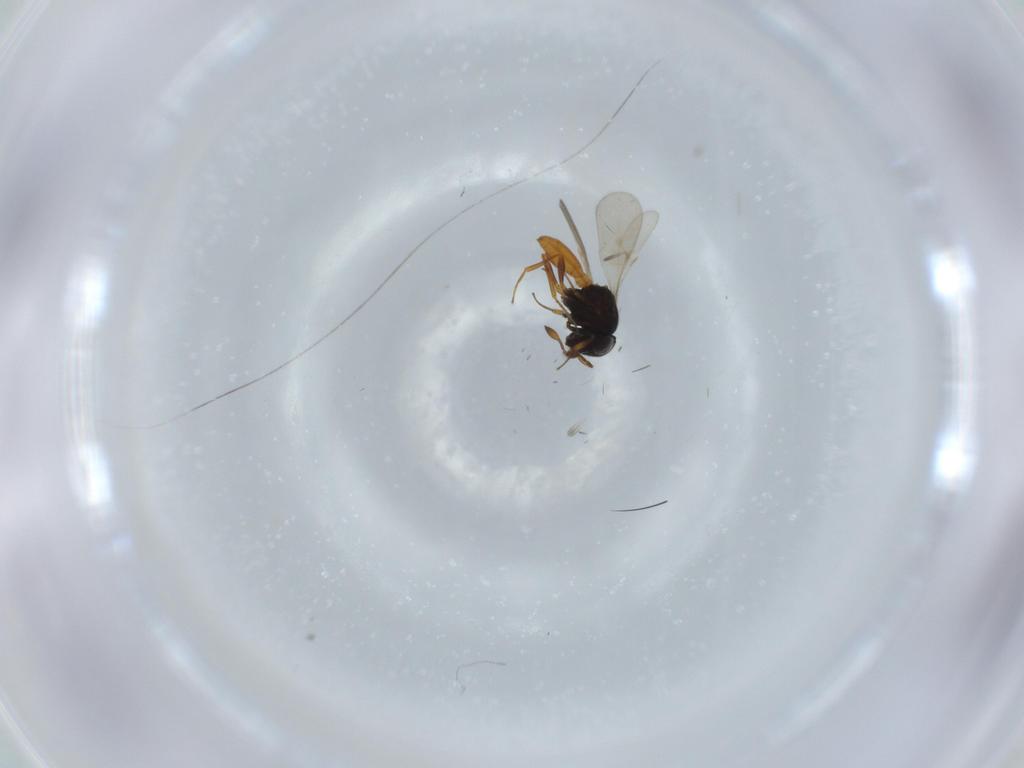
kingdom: Animalia
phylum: Arthropoda
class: Insecta
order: Hymenoptera
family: Scelionidae
